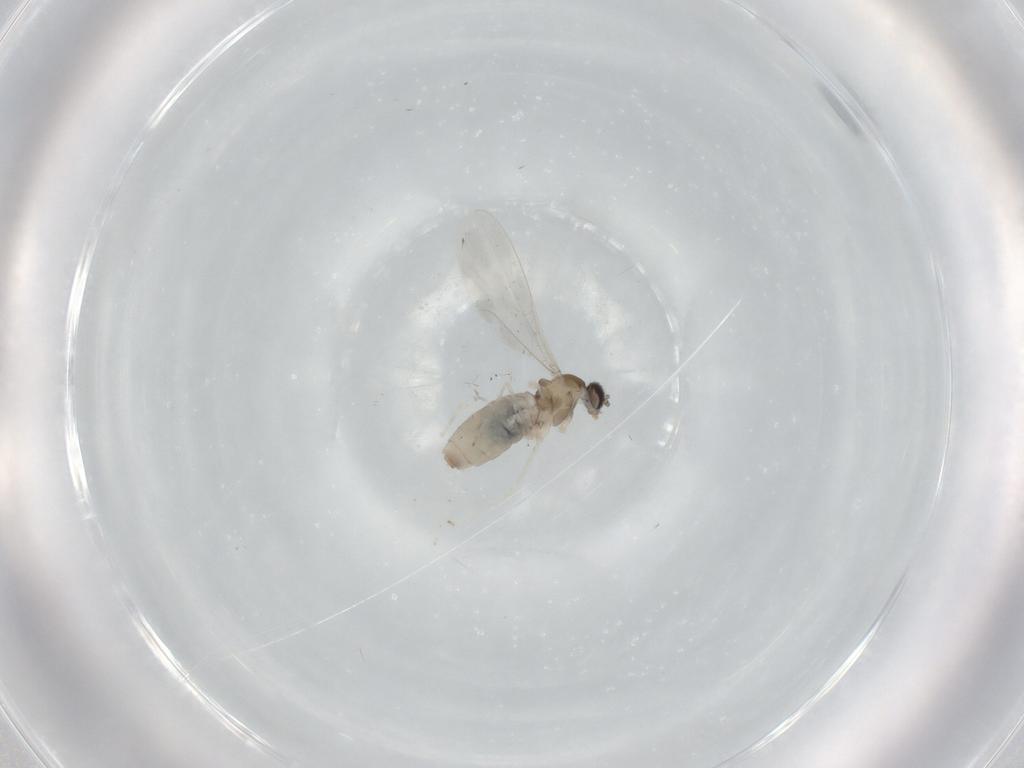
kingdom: Animalia
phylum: Arthropoda
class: Insecta
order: Diptera
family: Cecidomyiidae
